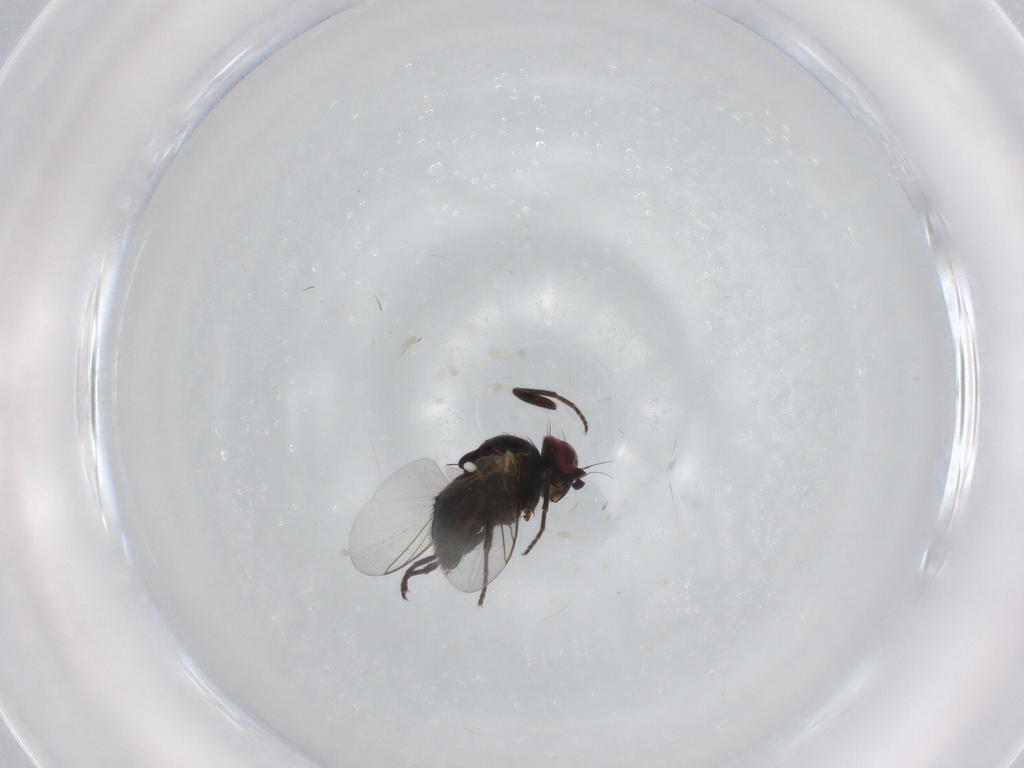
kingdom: Animalia
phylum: Arthropoda
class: Insecta
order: Diptera
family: Agromyzidae
